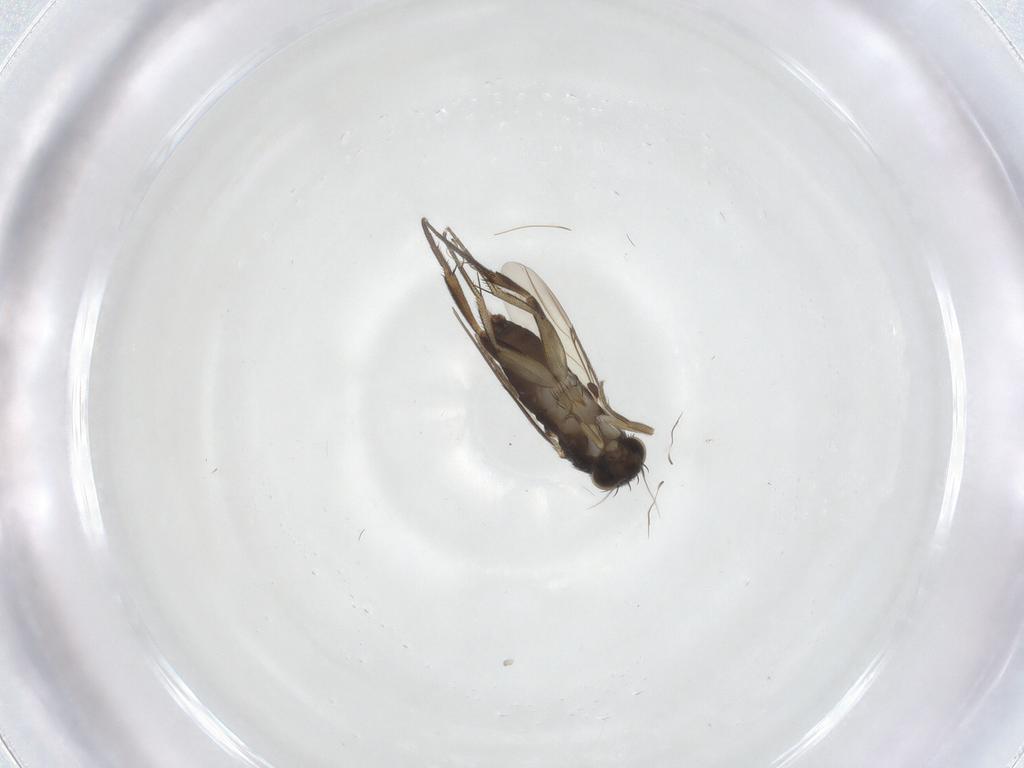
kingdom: Animalia
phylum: Arthropoda
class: Insecta
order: Diptera
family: Phoridae
